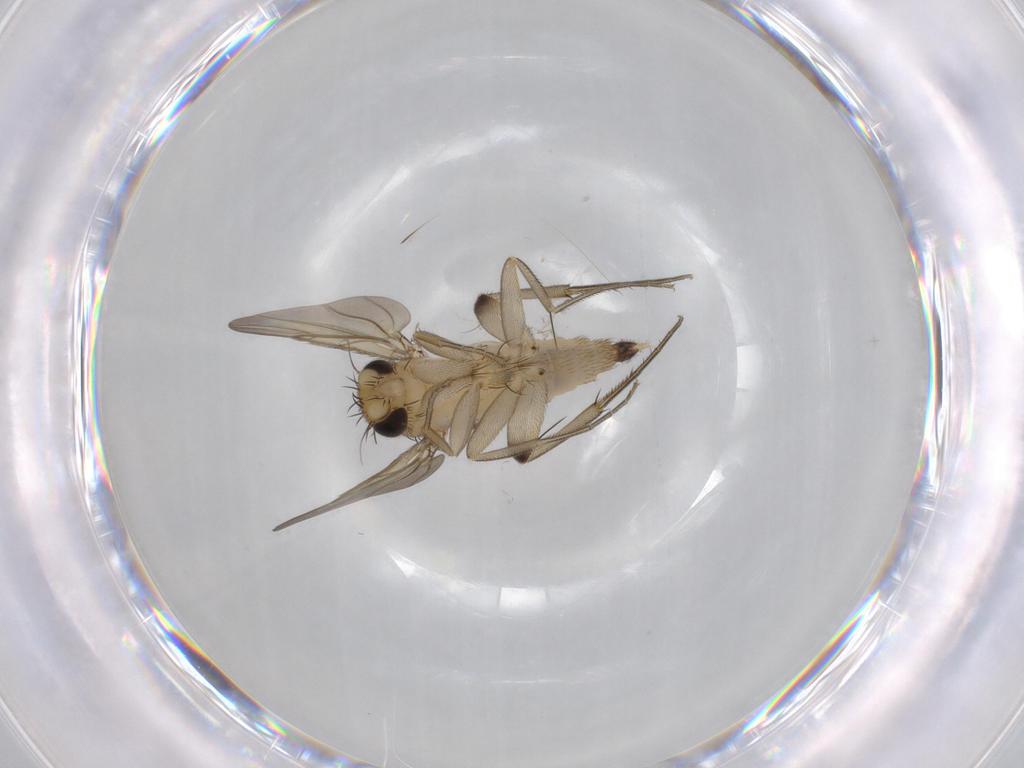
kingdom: Animalia
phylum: Arthropoda
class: Insecta
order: Diptera
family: Phoridae
